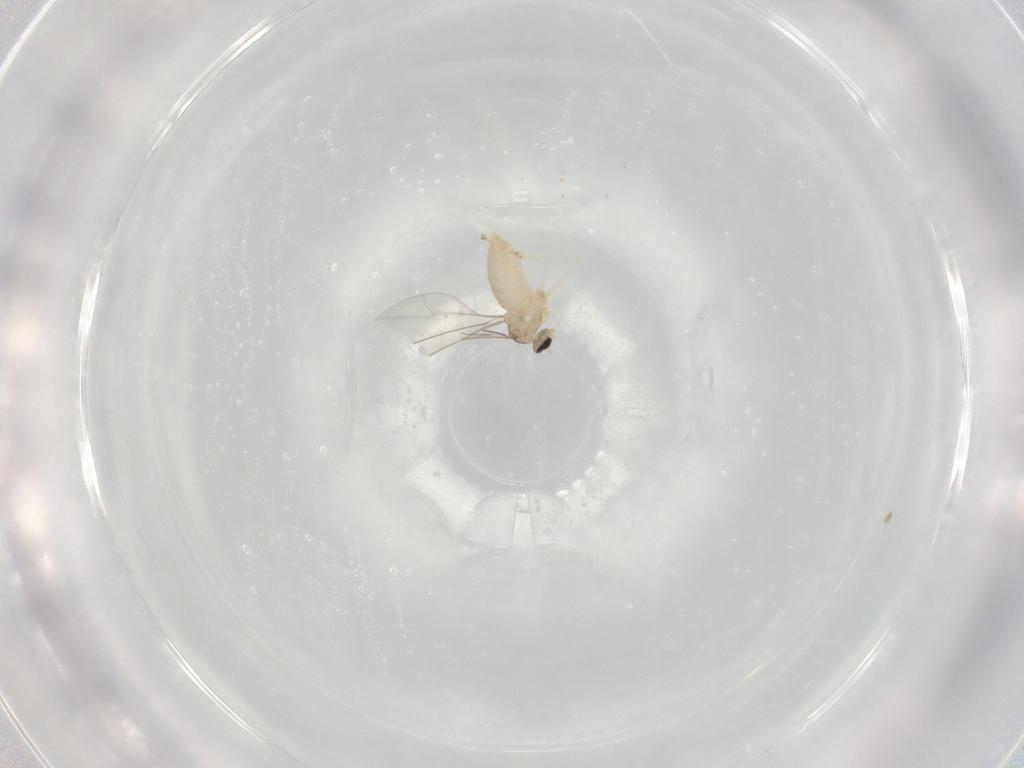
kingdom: Animalia
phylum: Arthropoda
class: Insecta
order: Diptera
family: Cecidomyiidae
